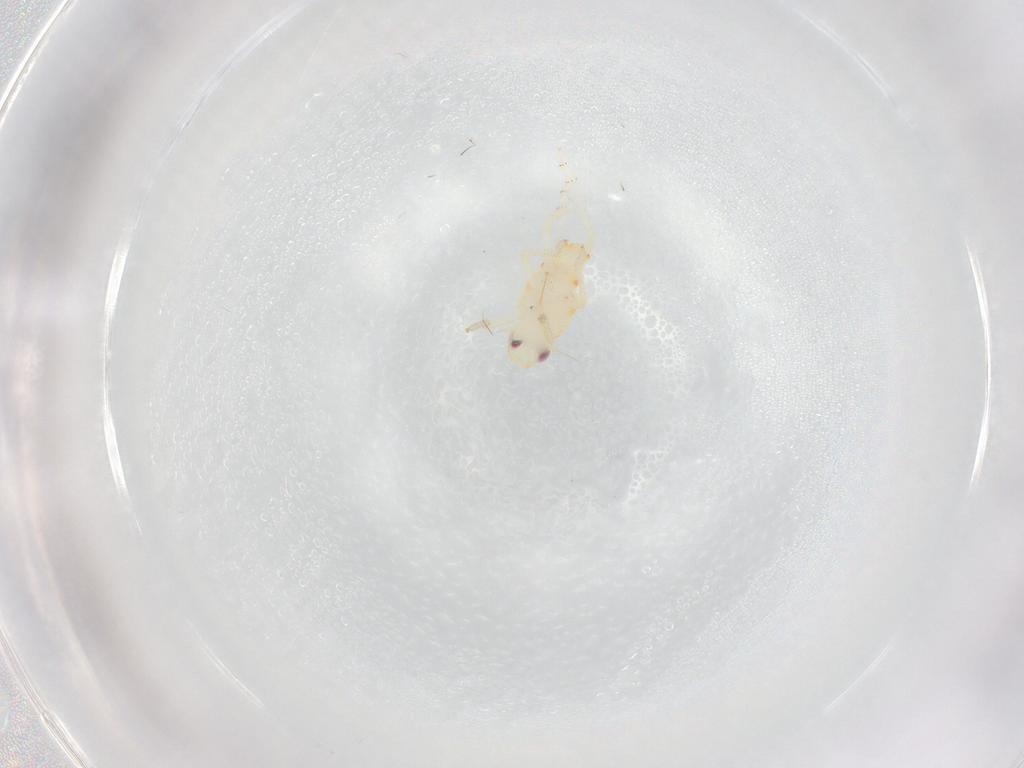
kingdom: Animalia
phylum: Arthropoda
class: Insecta
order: Hemiptera
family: Tropiduchidae
